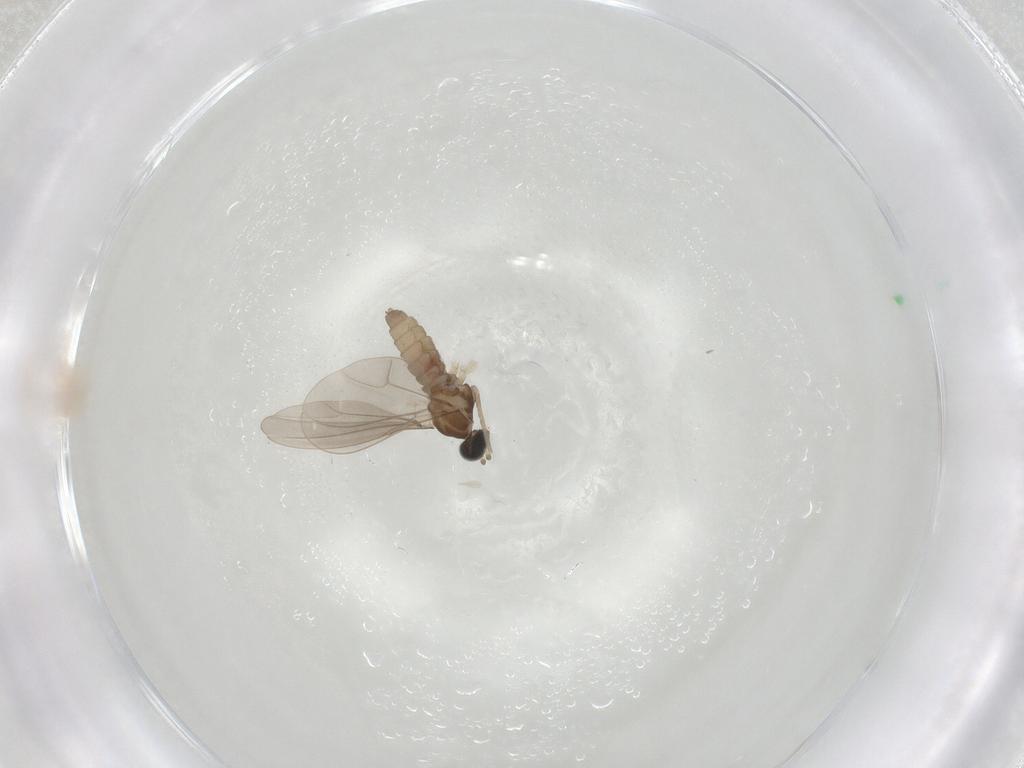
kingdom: Animalia
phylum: Arthropoda
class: Insecta
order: Diptera
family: Cecidomyiidae
